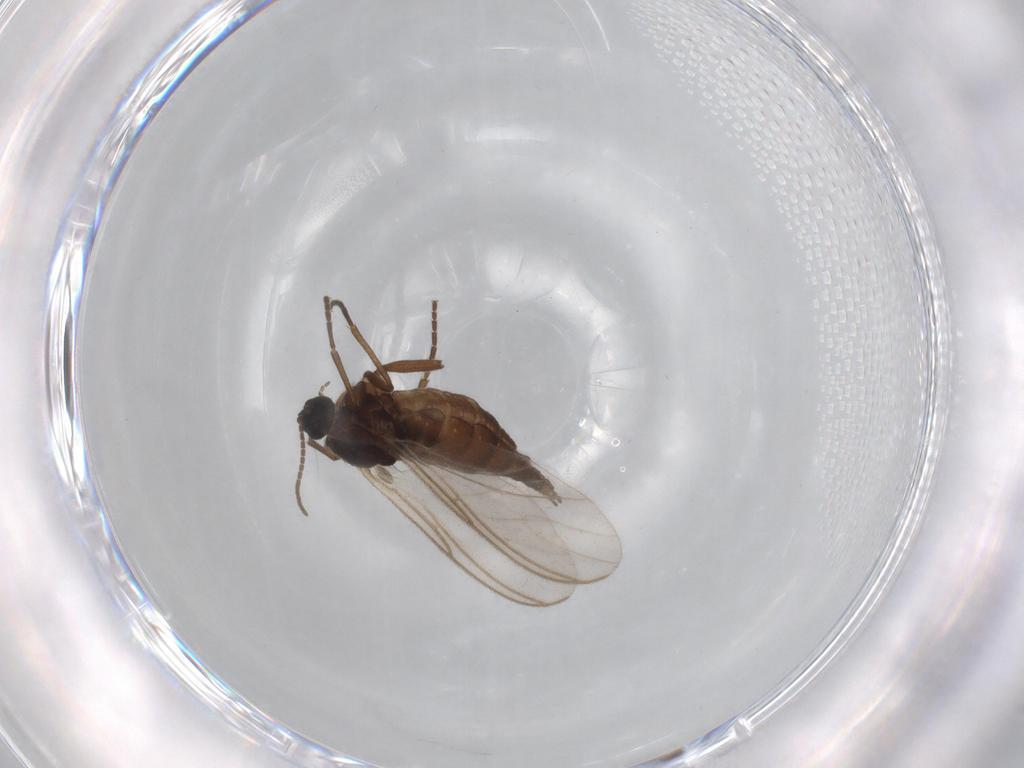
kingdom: Animalia
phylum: Arthropoda
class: Insecta
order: Diptera
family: Sciaridae
